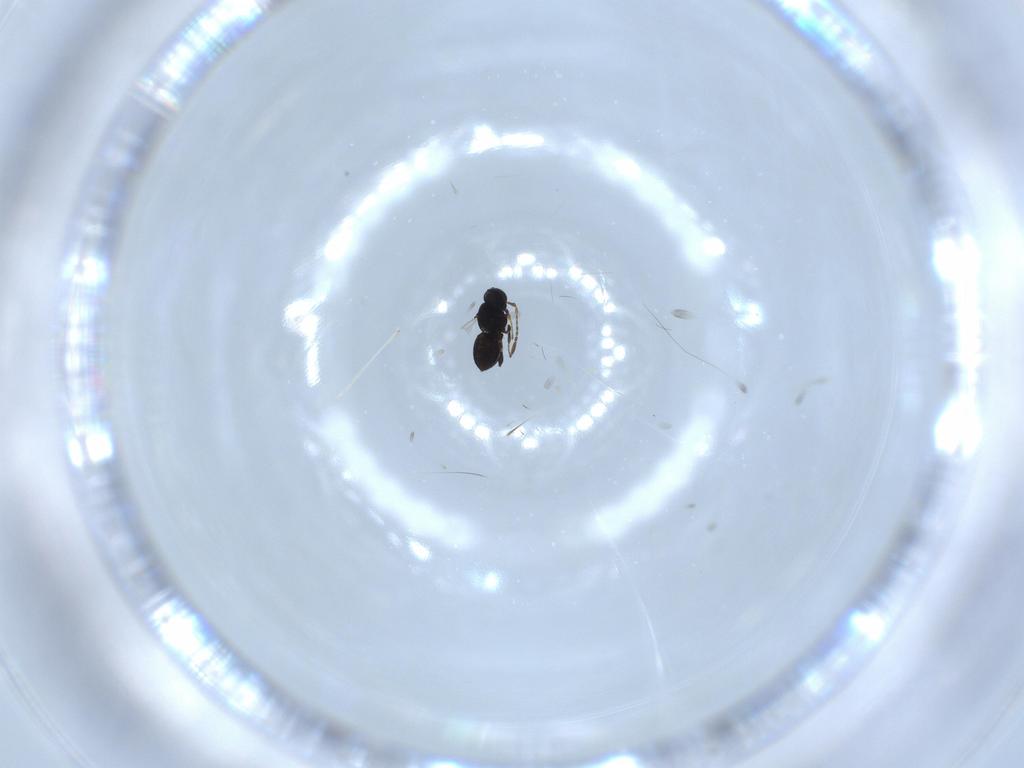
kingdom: Animalia
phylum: Arthropoda
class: Insecta
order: Hymenoptera
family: Platygastridae
